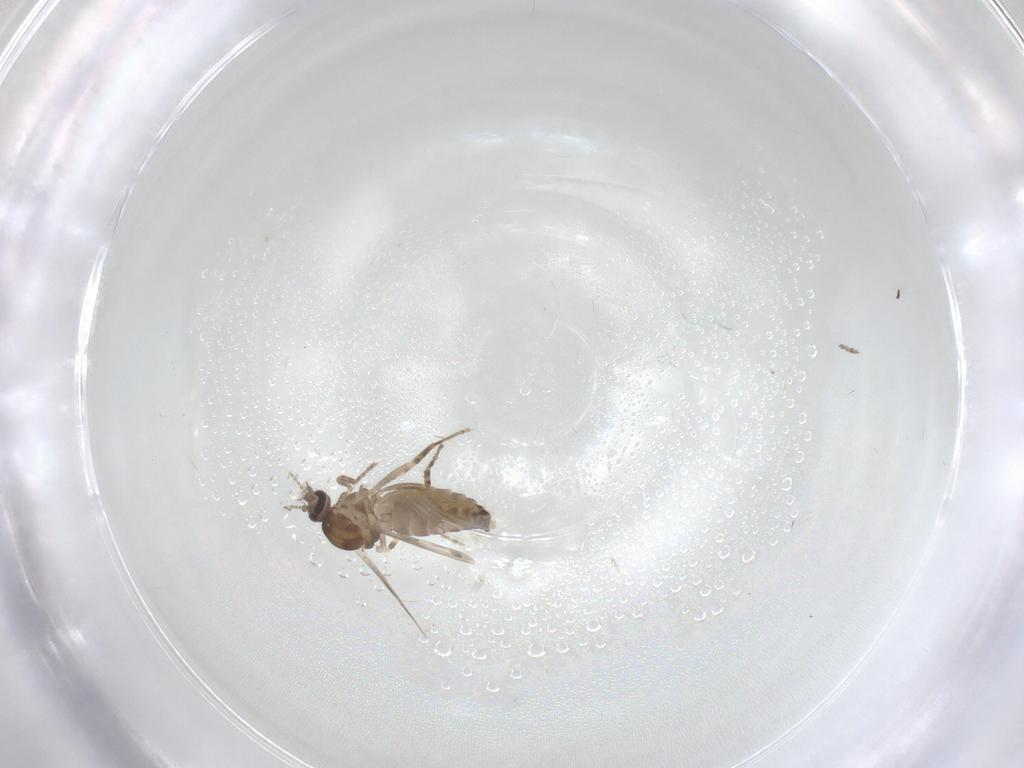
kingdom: Animalia
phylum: Arthropoda
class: Insecta
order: Diptera
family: Ceratopogonidae
